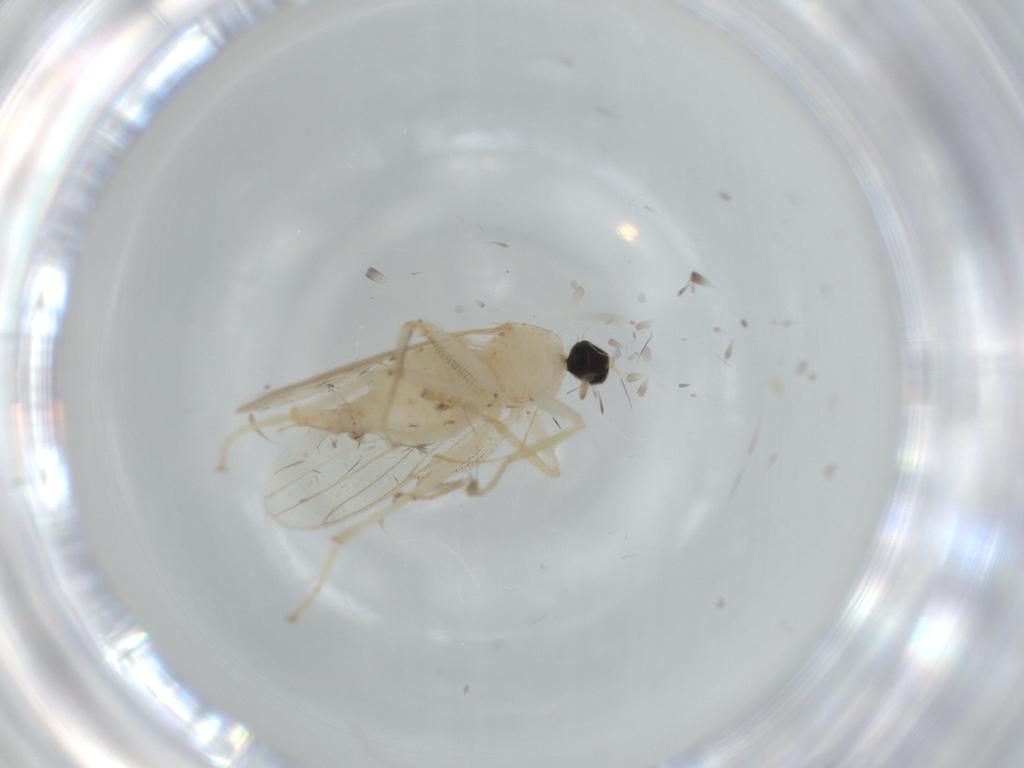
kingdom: Animalia
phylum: Arthropoda
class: Insecta
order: Diptera
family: Hybotidae
